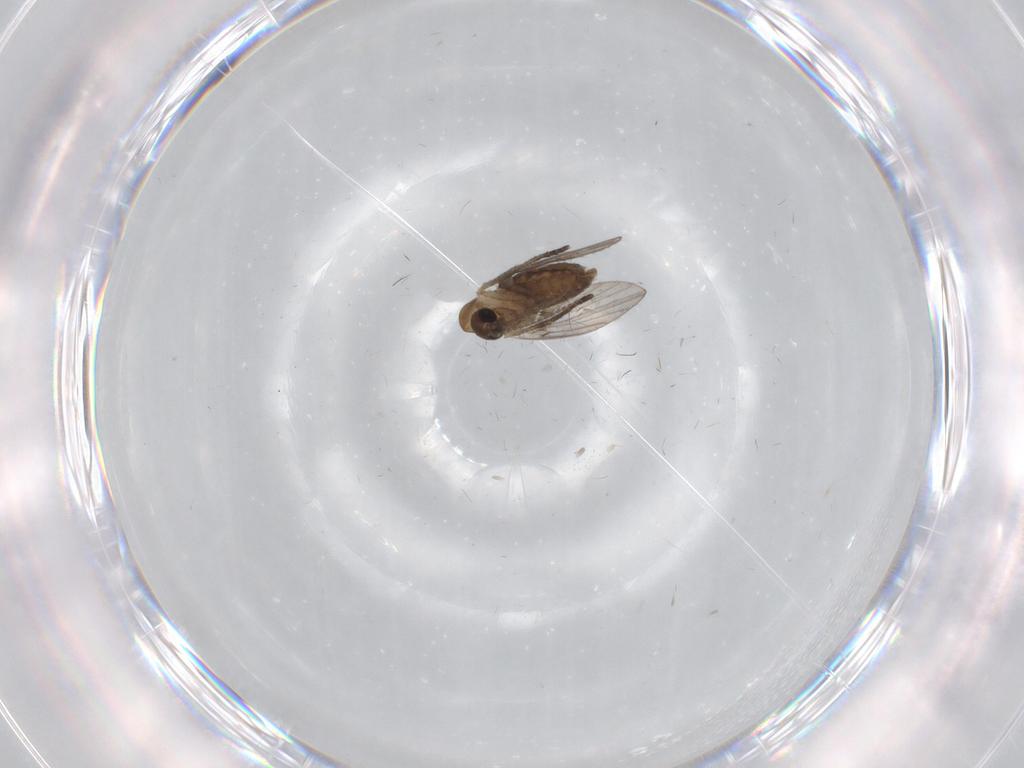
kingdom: Animalia
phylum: Arthropoda
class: Insecta
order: Diptera
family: Psychodidae
